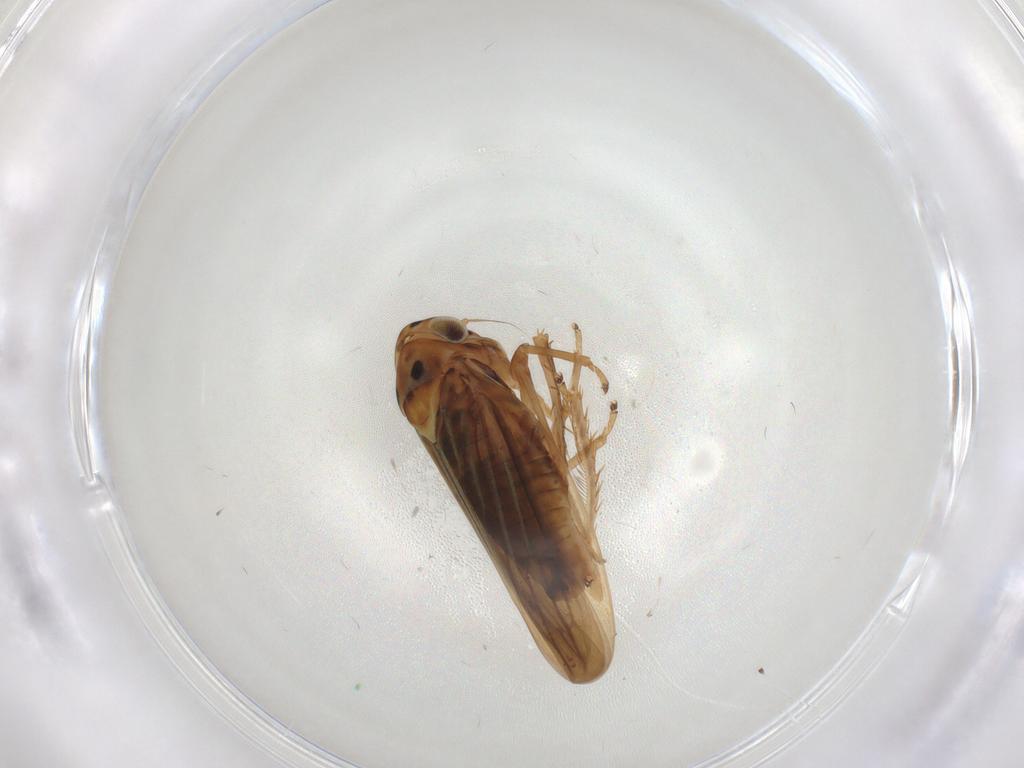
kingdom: Animalia
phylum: Arthropoda
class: Insecta
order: Hemiptera
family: Cicadellidae
